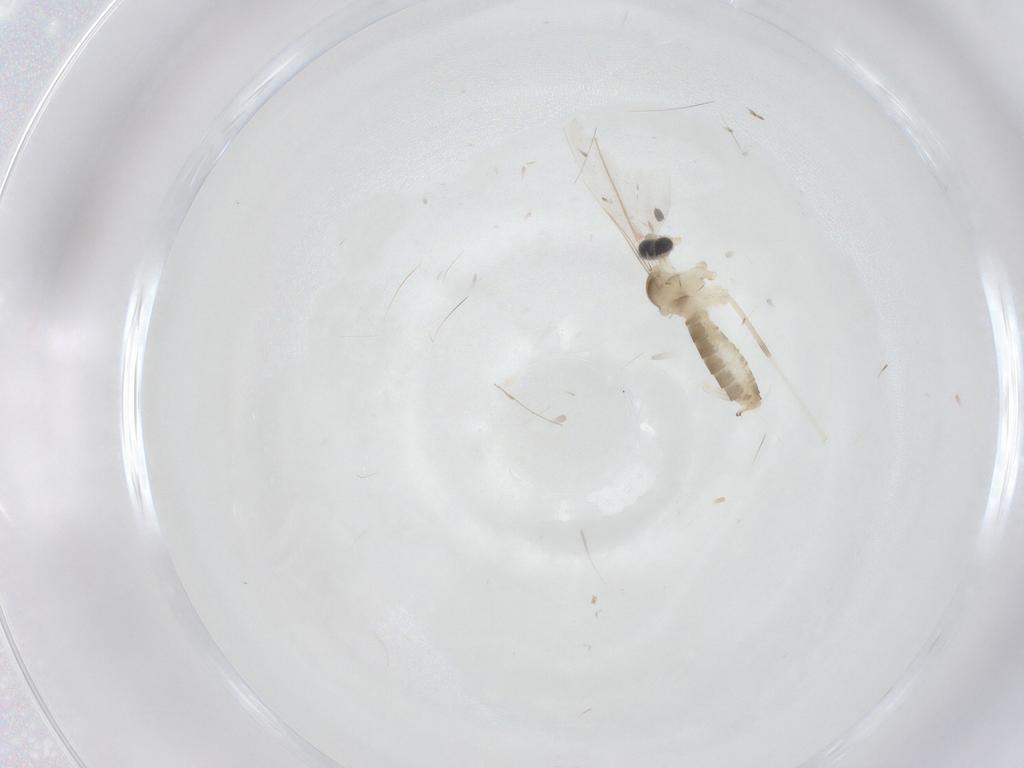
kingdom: Animalia
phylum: Arthropoda
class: Insecta
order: Diptera
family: Cecidomyiidae
